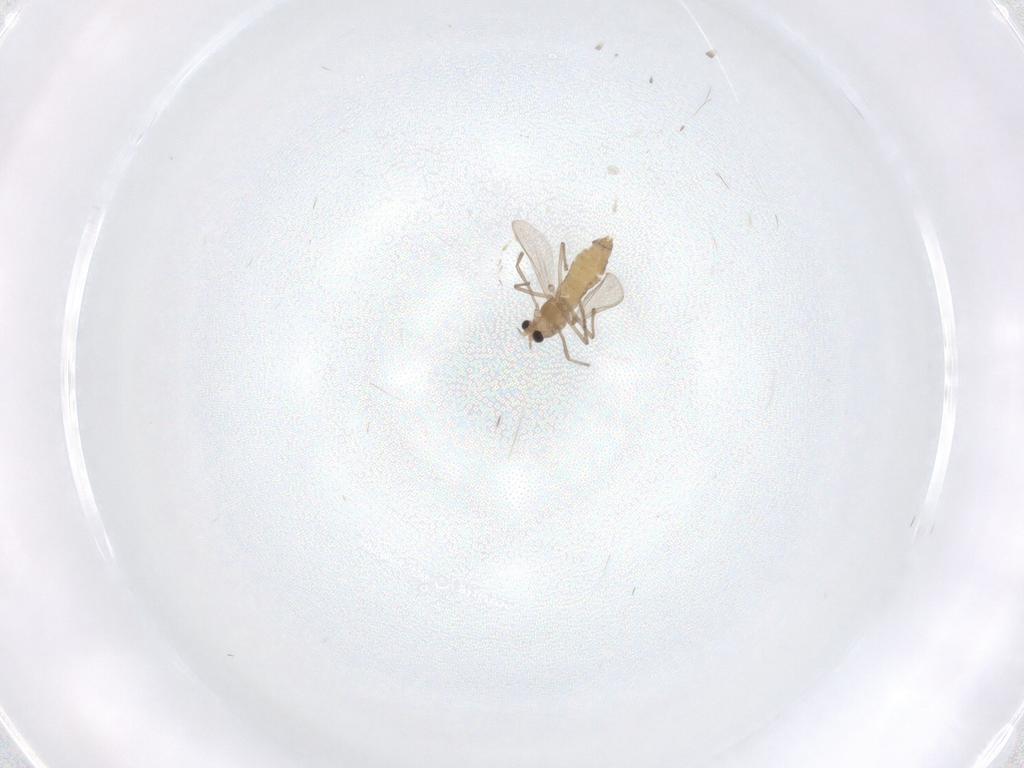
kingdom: Animalia
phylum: Arthropoda
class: Insecta
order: Diptera
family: Chironomidae
